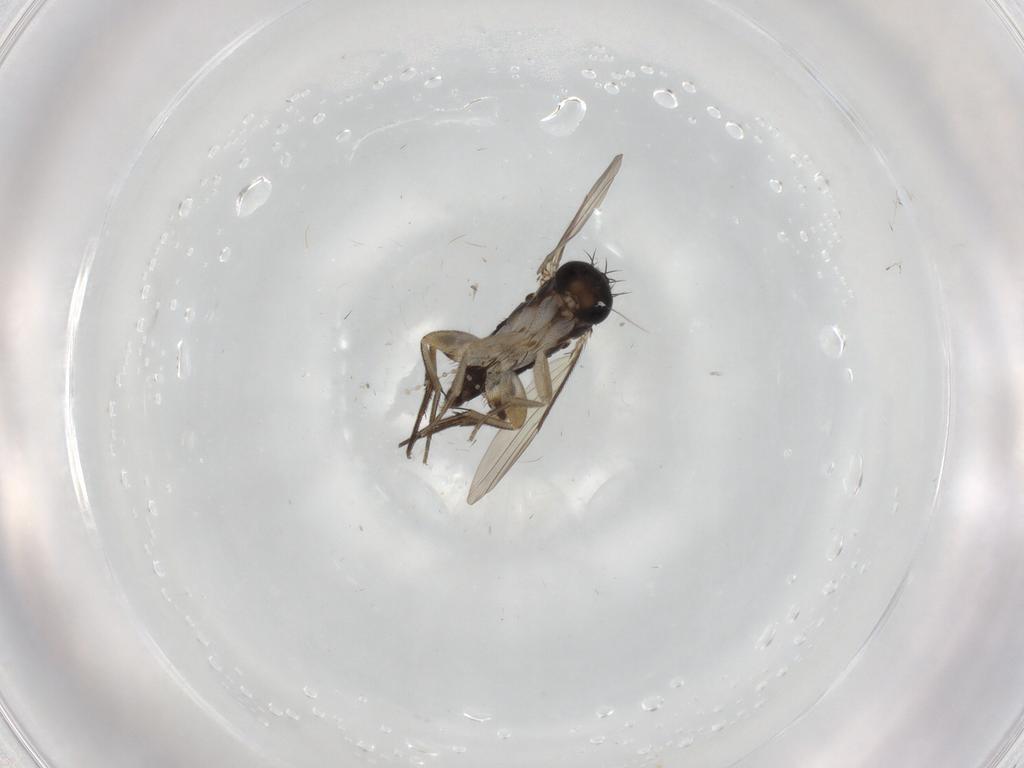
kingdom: Animalia
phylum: Arthropoda
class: Insecta
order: Diptera
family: Phoridae
